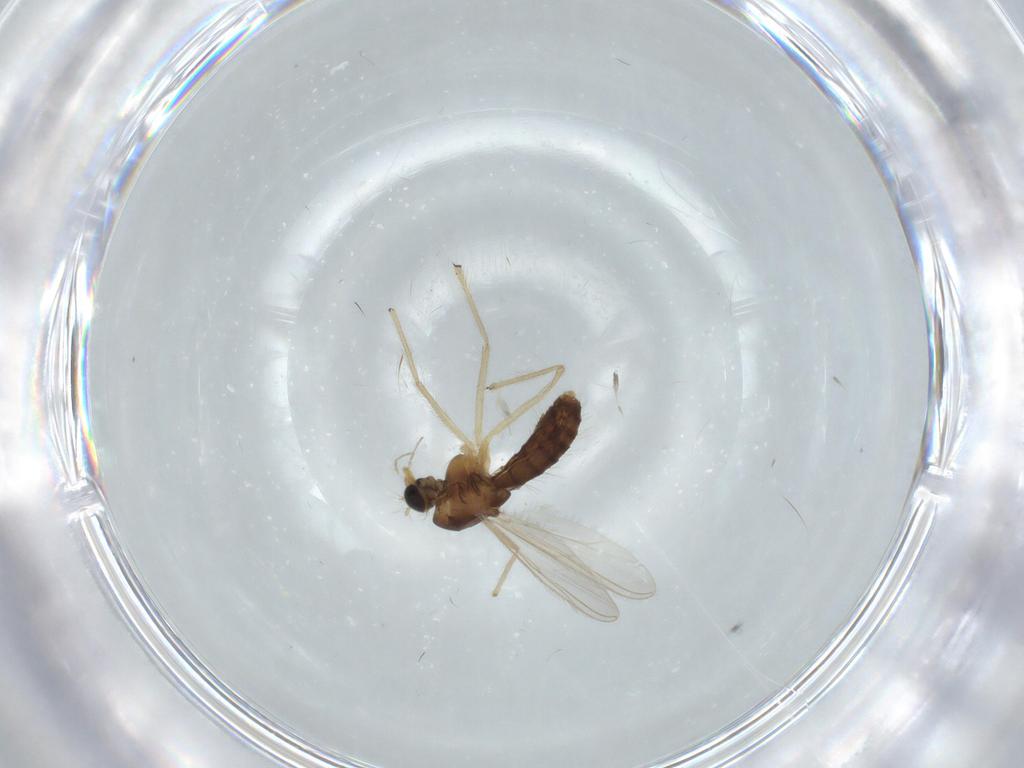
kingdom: Animalia
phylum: Arthropoda
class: Insecta
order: Diptera
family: Chironomidae
